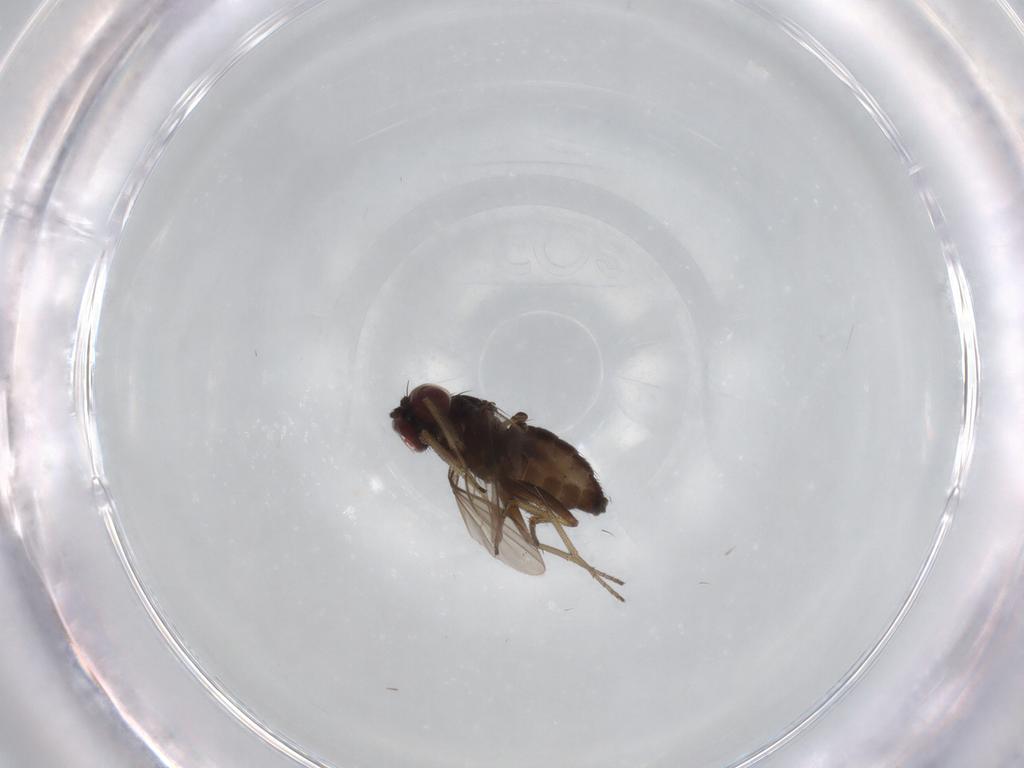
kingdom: Animalia
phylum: Arthropoda
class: Insecta
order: Diptera
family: Dolichopodidae
